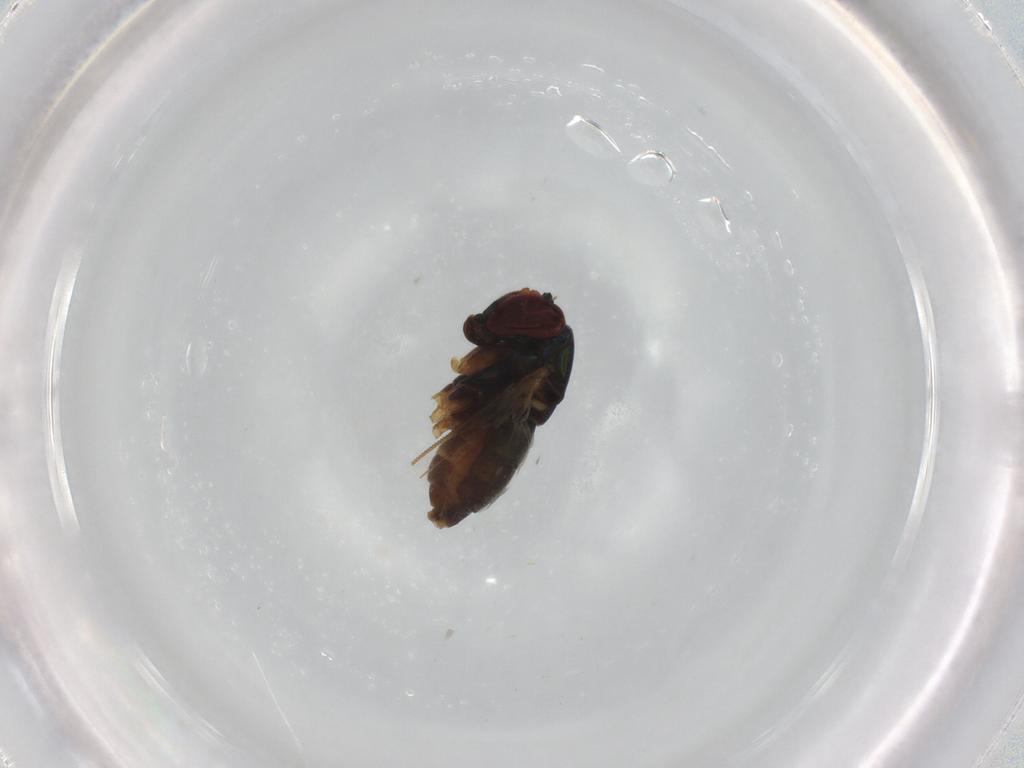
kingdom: Animalia
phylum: Arthropoda
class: Insecta
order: Diptera
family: Dolichopodidae
